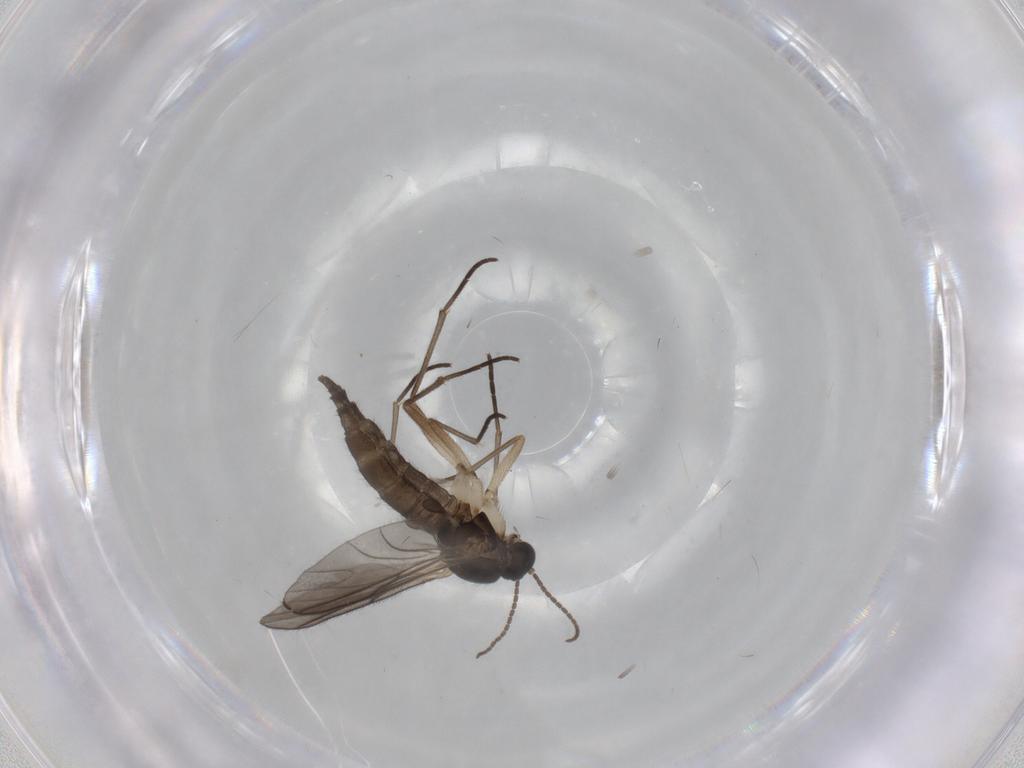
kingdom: Animalia
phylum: Arthropoda
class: Insecta
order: Diptera
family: Sciaridae
